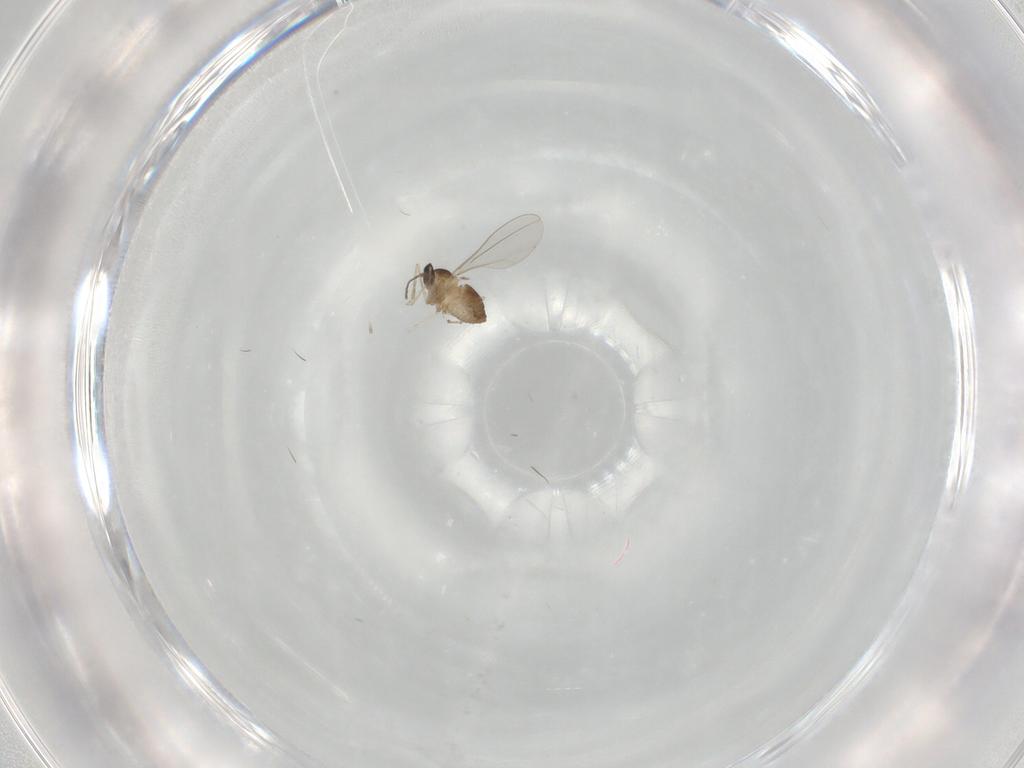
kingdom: Animalia
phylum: Arthropoda
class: Insecta
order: Diptera
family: Cecidomyiidae
